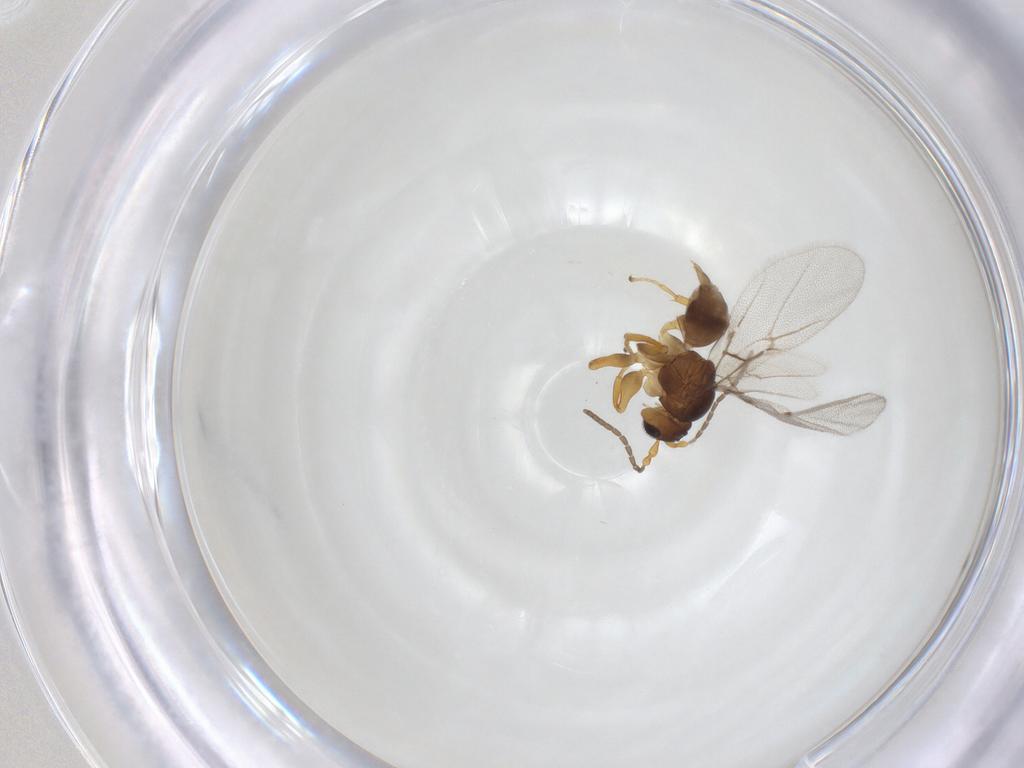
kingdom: Animalia
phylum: Arthropoda
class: Insecta
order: Hymenoptera
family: Cynipidae
